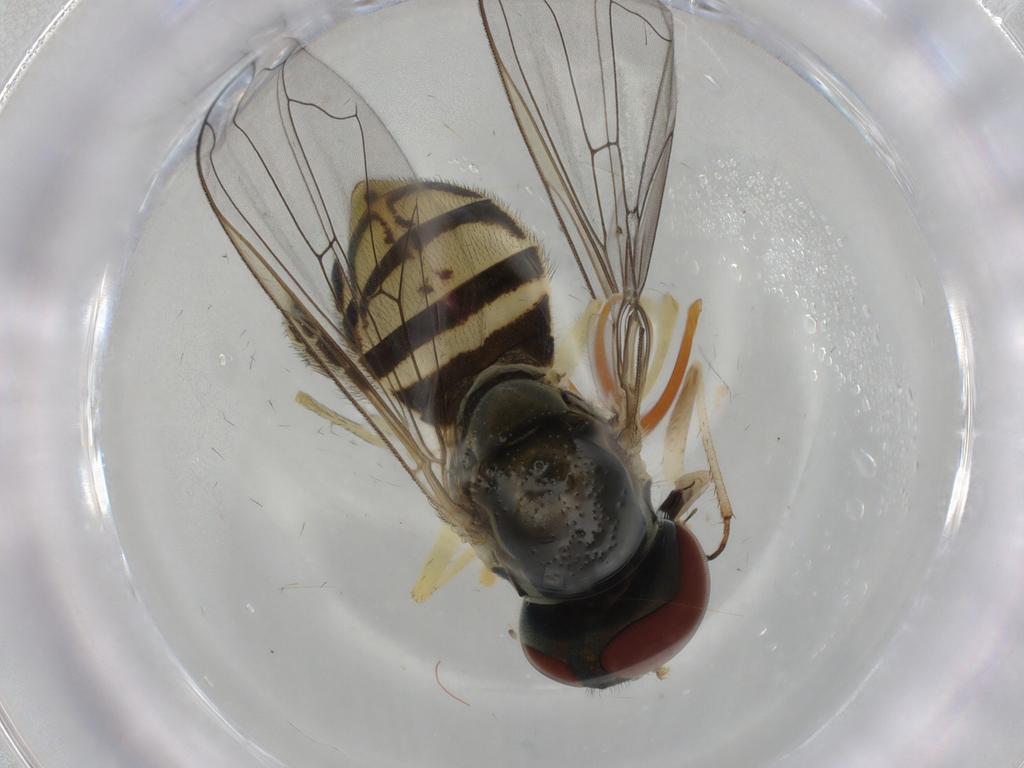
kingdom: Animalia
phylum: Arthropoda
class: Insecta
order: Diptera
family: Syrphidae
